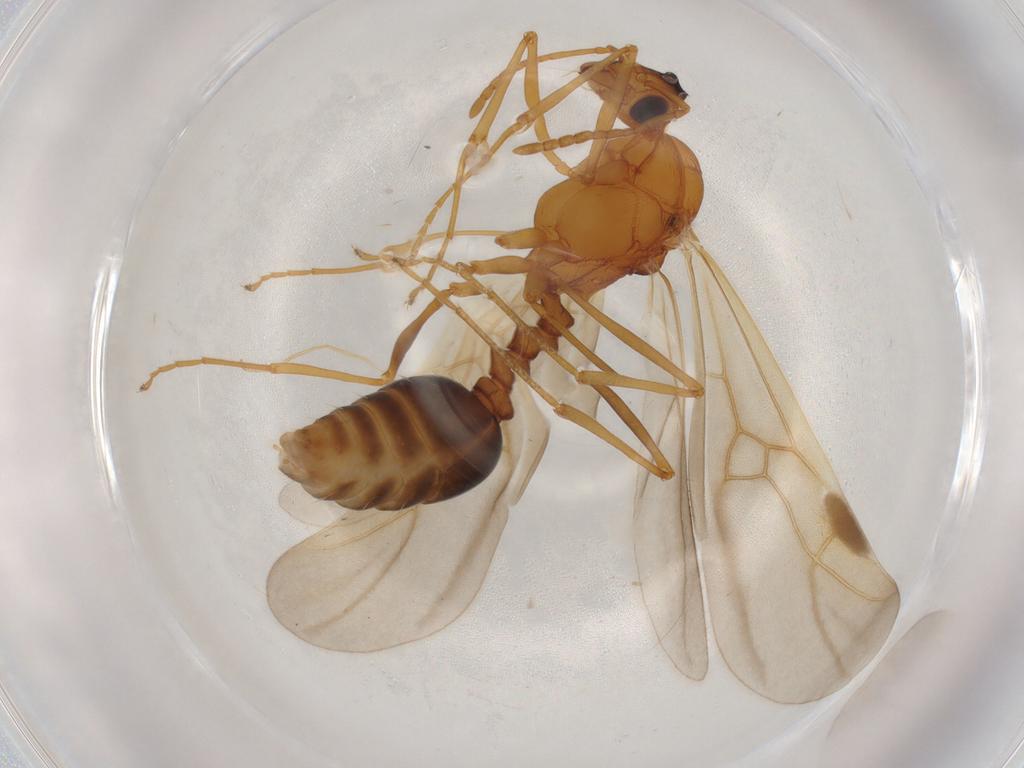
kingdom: Animalia
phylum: Arthropoda
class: Insecta
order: Hymenoptera
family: Formicidae
